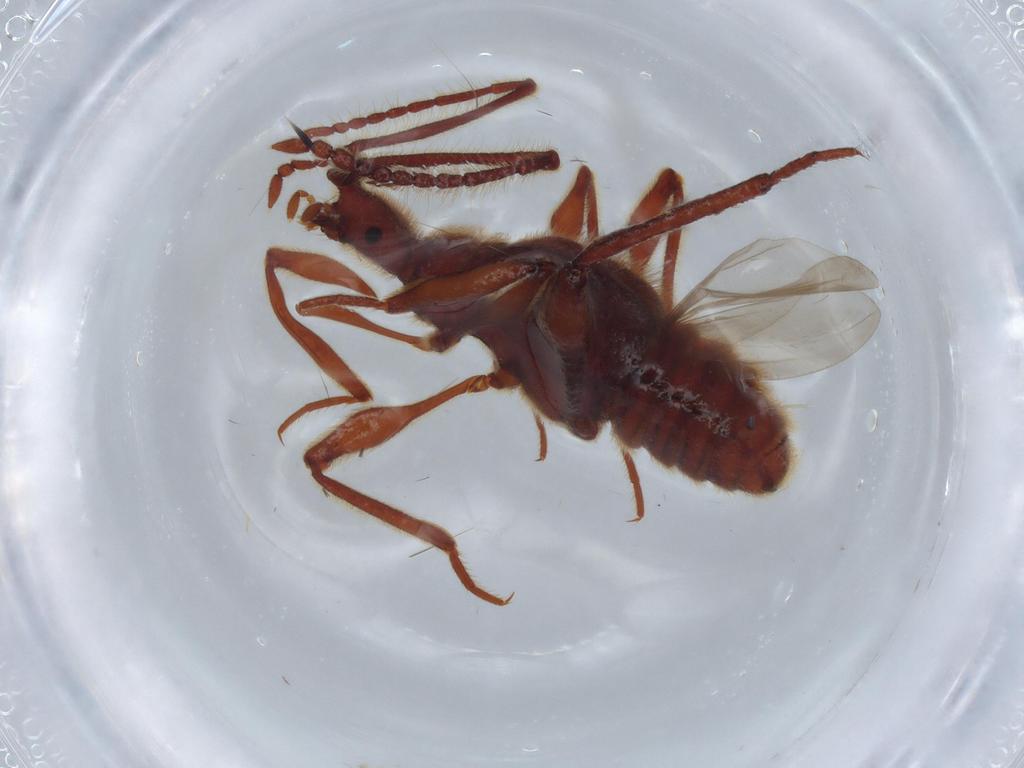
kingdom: Animalia
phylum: Arthropoda
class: Insecta
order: Coleoptera
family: Staphylinidae
